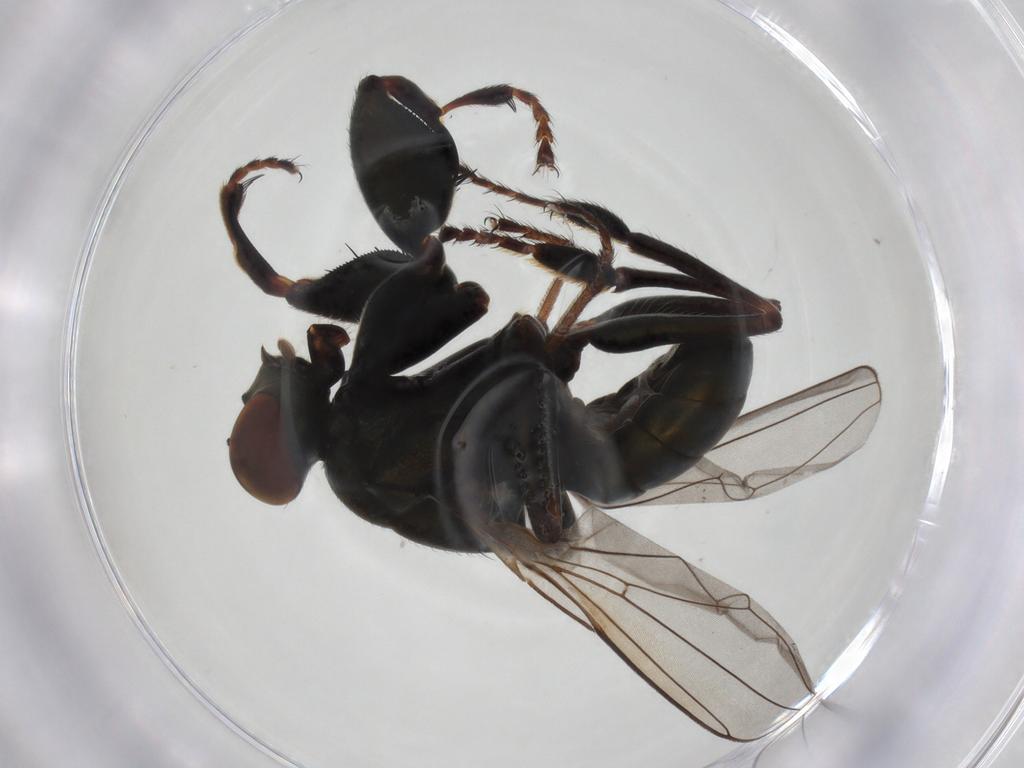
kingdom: Animalia
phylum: Arthropoda
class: Insecta
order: Diptera
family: Ephydridae
